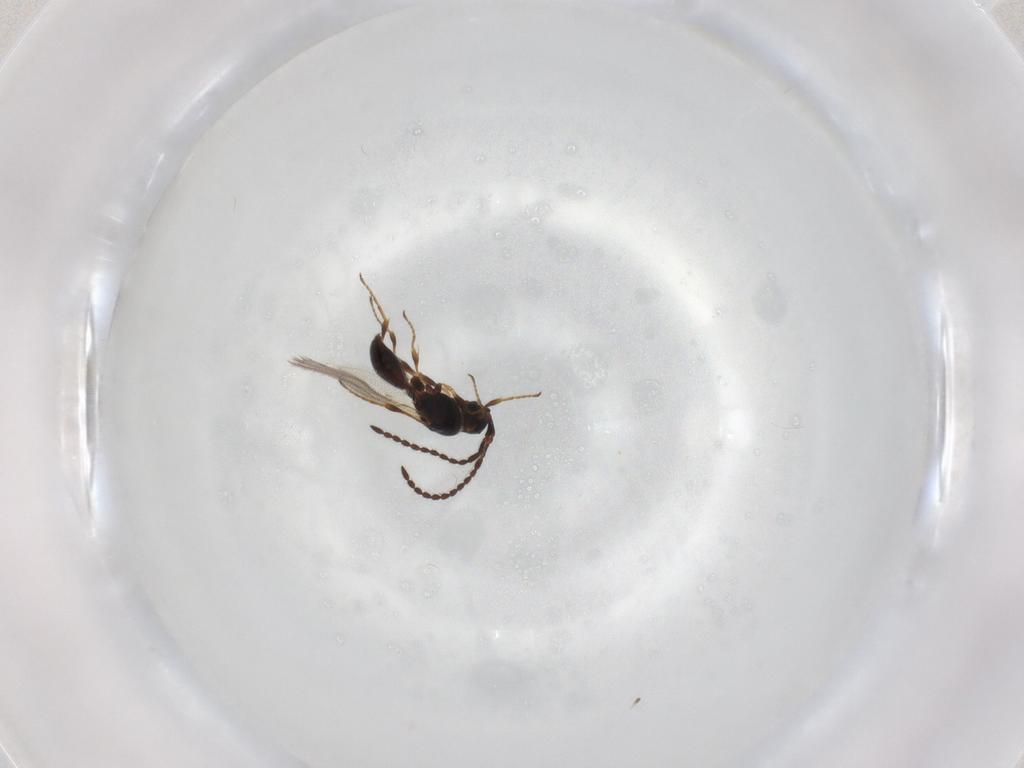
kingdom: Animalia
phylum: Arthropoda
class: Insecta
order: Hymenoptera
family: Diapriidae
